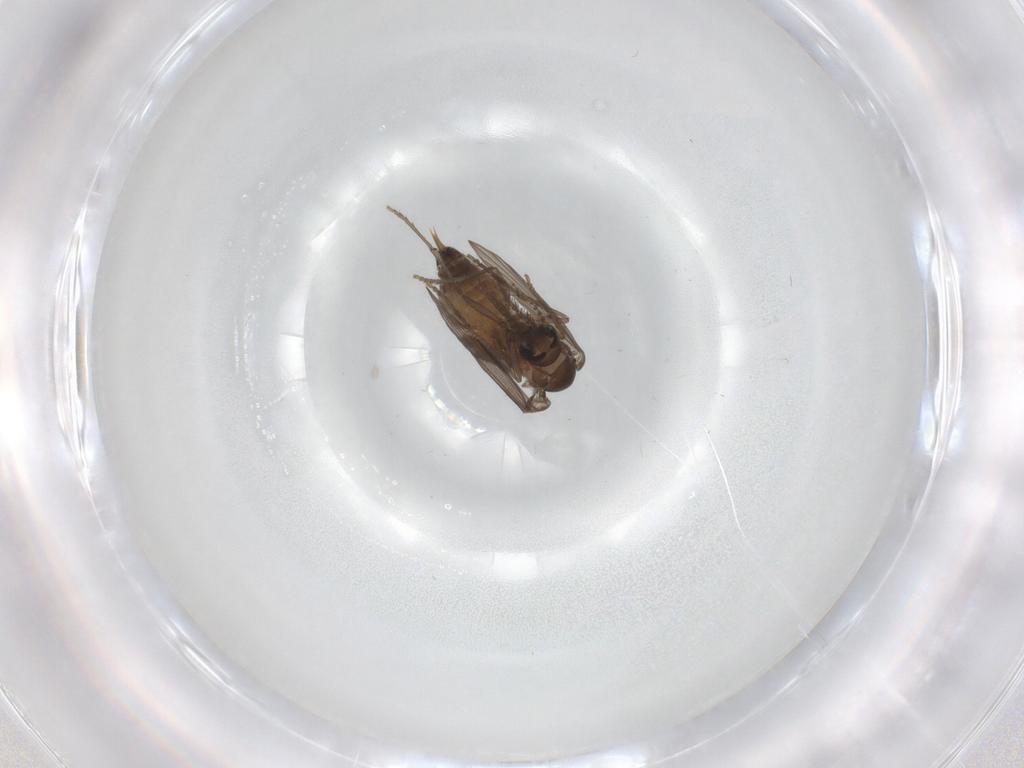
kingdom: Animalia
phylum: Arthropoda
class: Insecta
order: Diptera
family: Psychodidae
